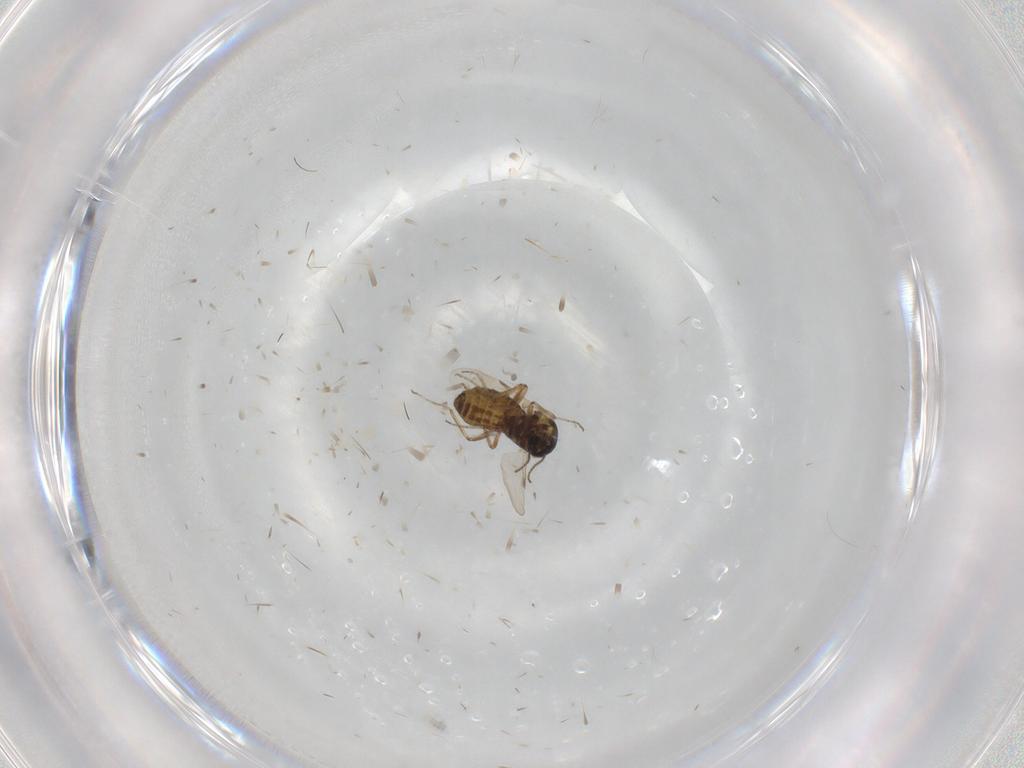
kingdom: Animalia
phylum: Arthropoda
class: Insecta
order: Diptera
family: Ceratopogonidae
